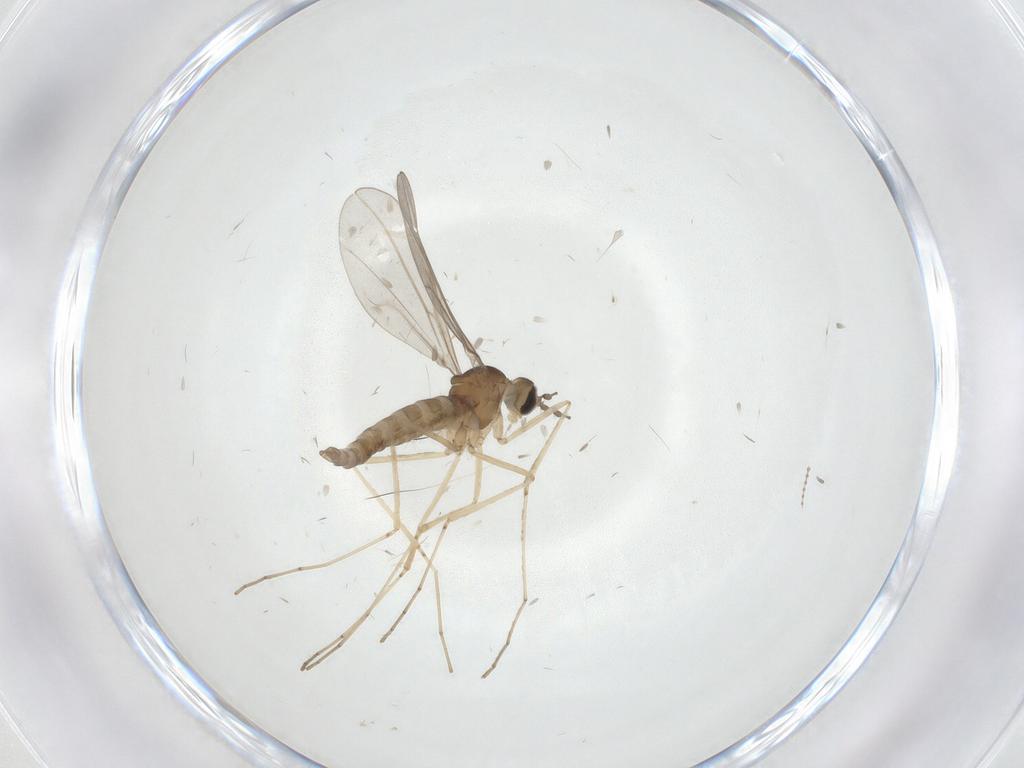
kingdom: Animalia
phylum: Arthropoda
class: Insecta
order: Diptera
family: Cecidomyiidae
